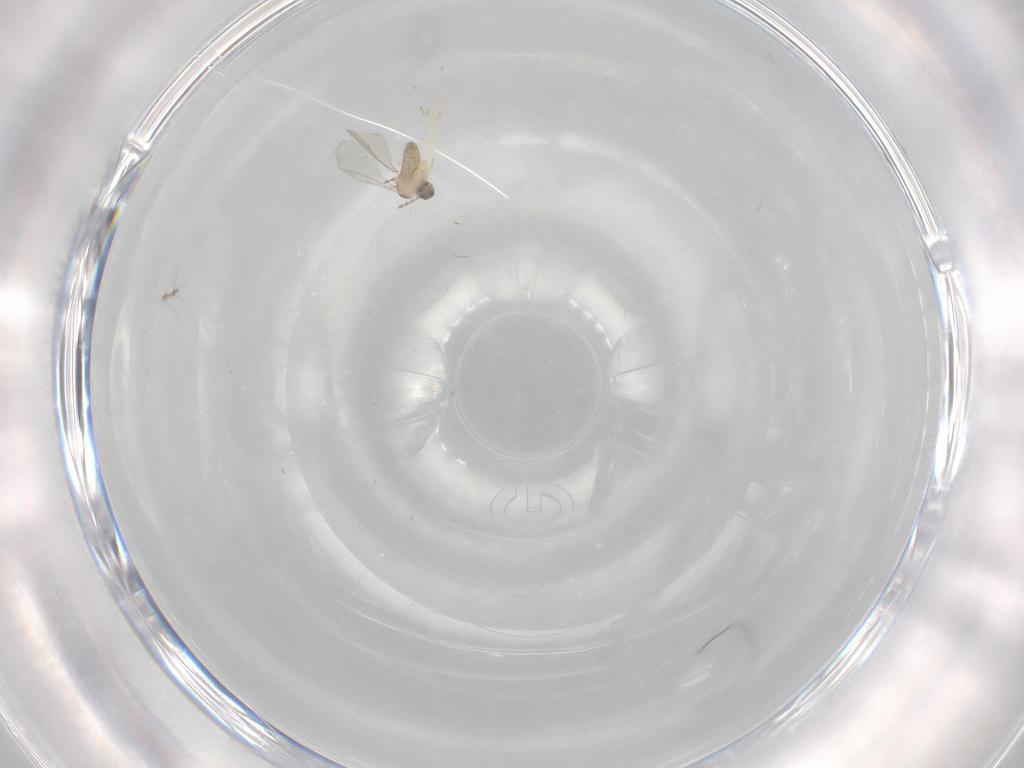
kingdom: Animalia
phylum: Arthropoda
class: Insecta
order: Diptera
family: Cecidomyiidae
